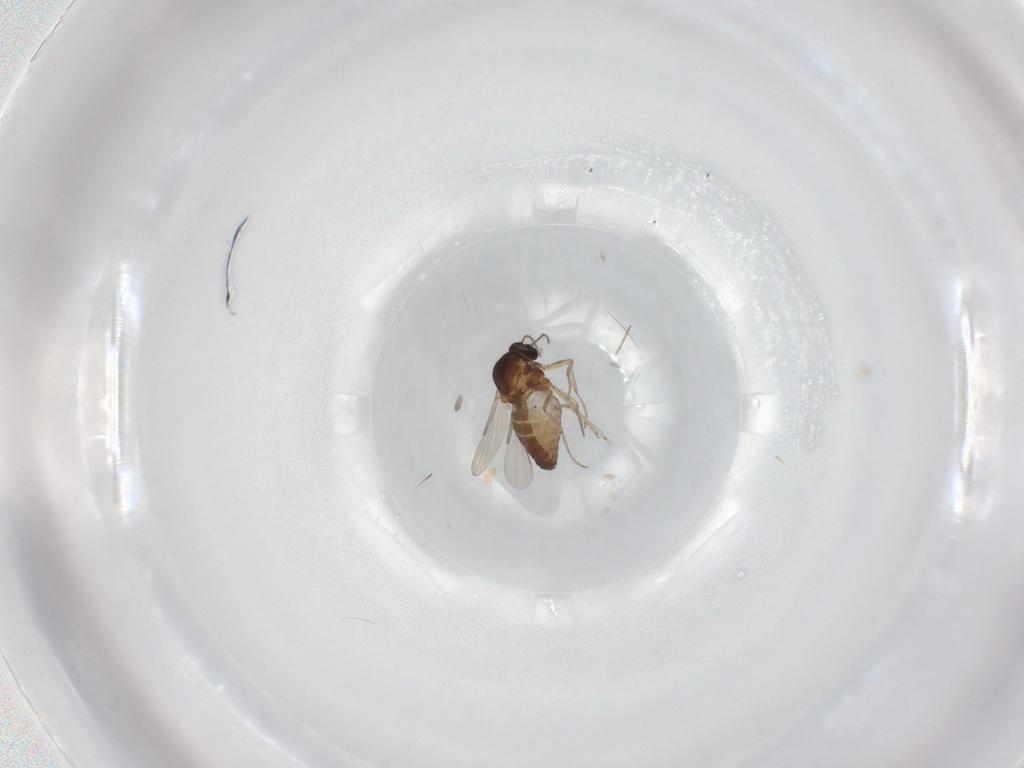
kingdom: Animalia
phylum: Arthropoda
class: Insecta
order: Diptera
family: Ceratopogonidae
